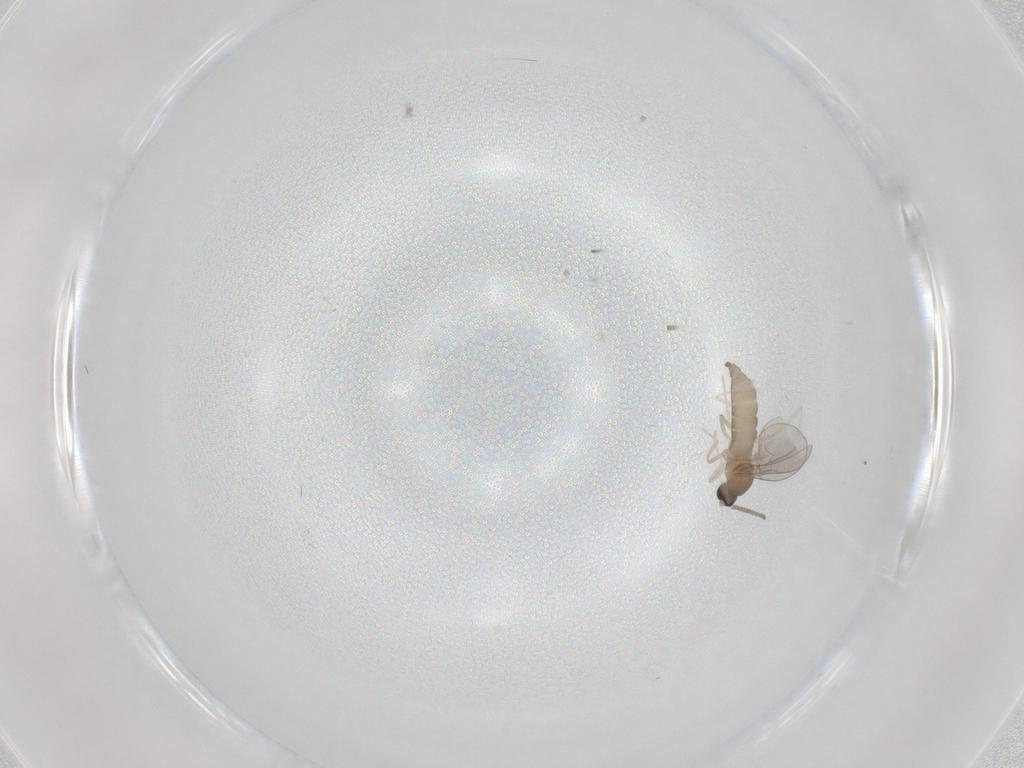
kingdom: Animalia
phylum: Arthropoda
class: Insecta
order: Diptera
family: Cecidomyiidae
